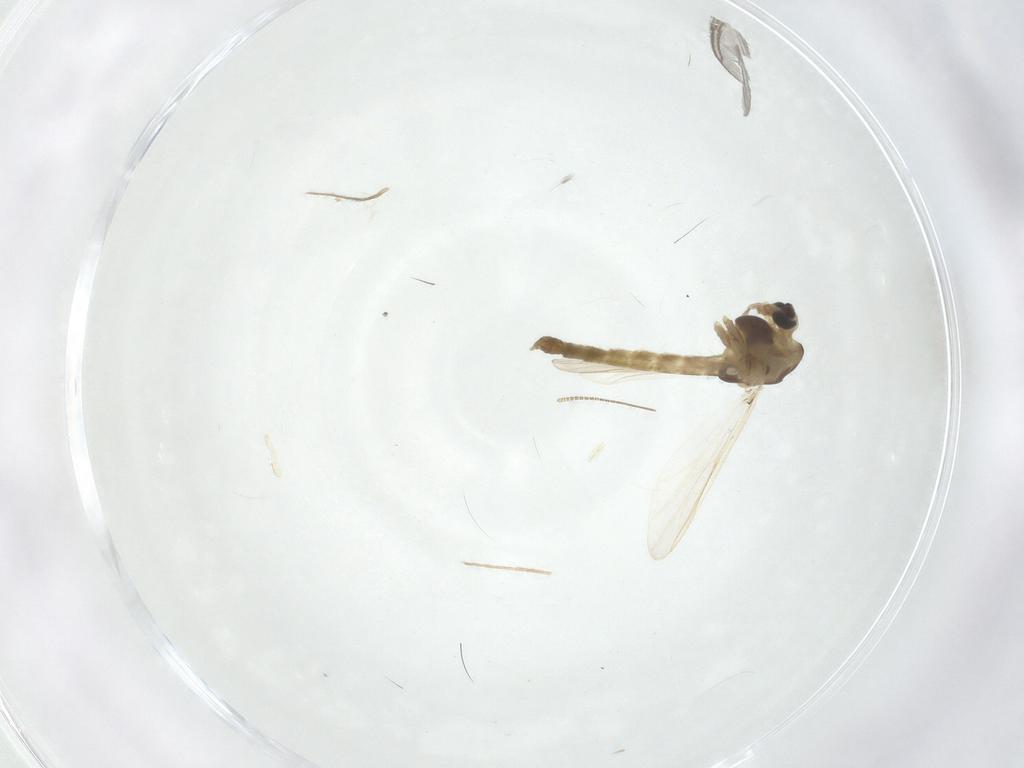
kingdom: Animalia
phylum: Arthropoda
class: Insecta
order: Diptera
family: Chironomidae
